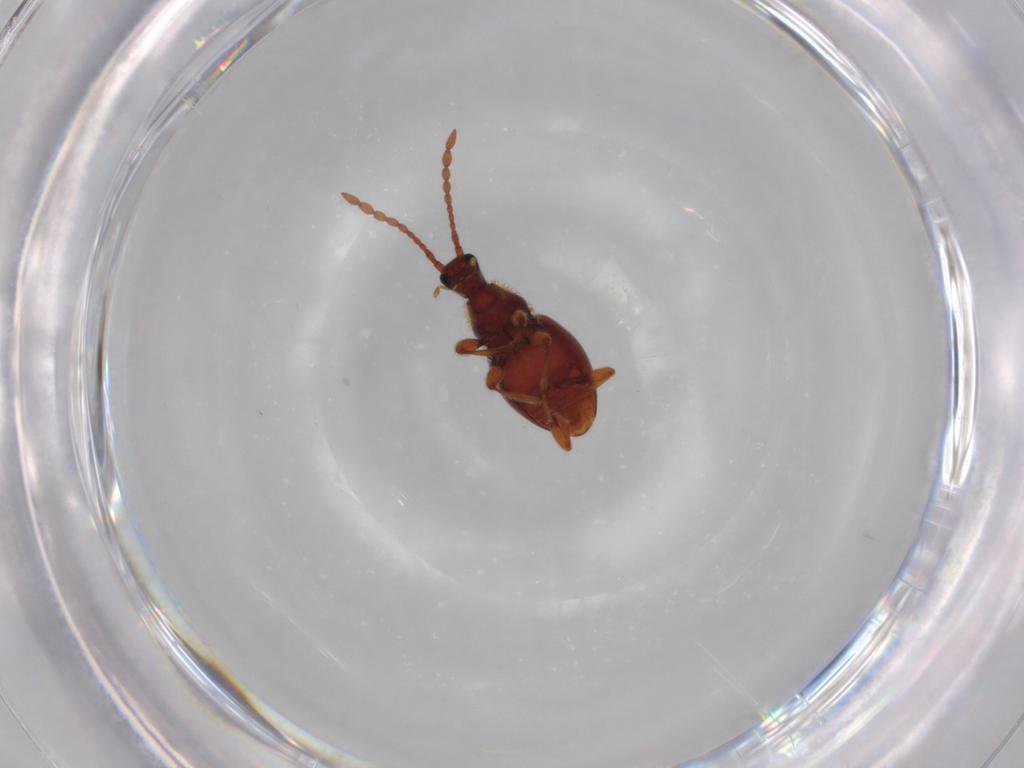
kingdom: Animalia
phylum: Arthropoda
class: Insecta
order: Coleoptera
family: Staphylinidae
